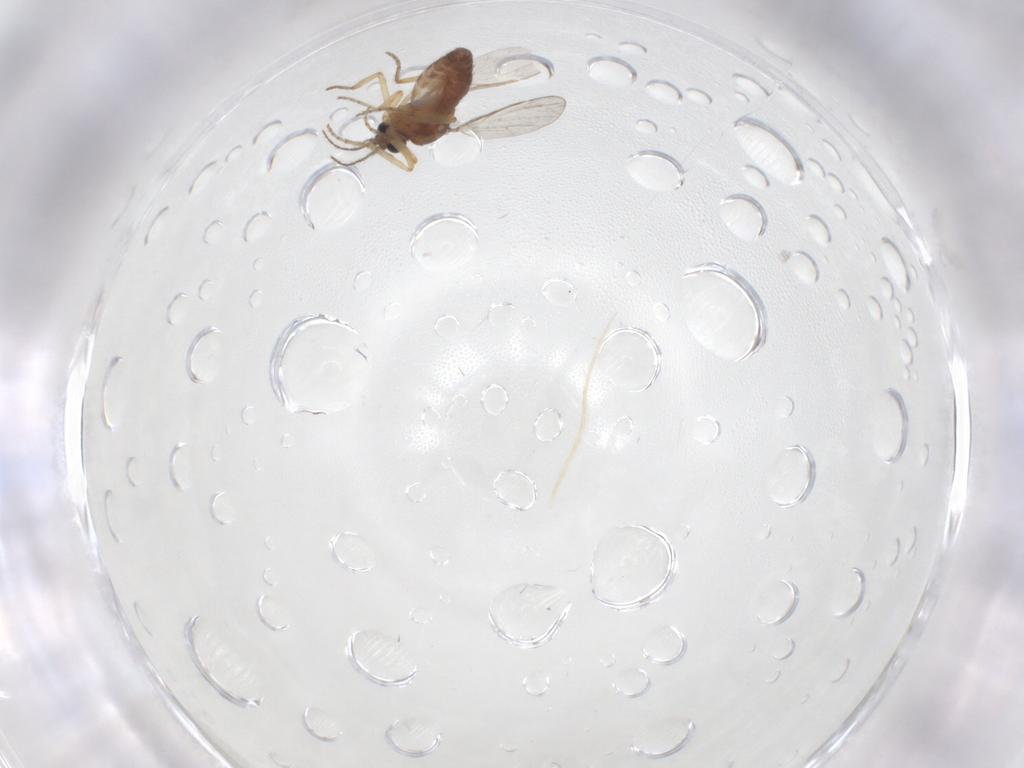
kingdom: Animalia
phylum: Arthropoda
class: Insecta
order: Diptera
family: Ceratopogonidae
